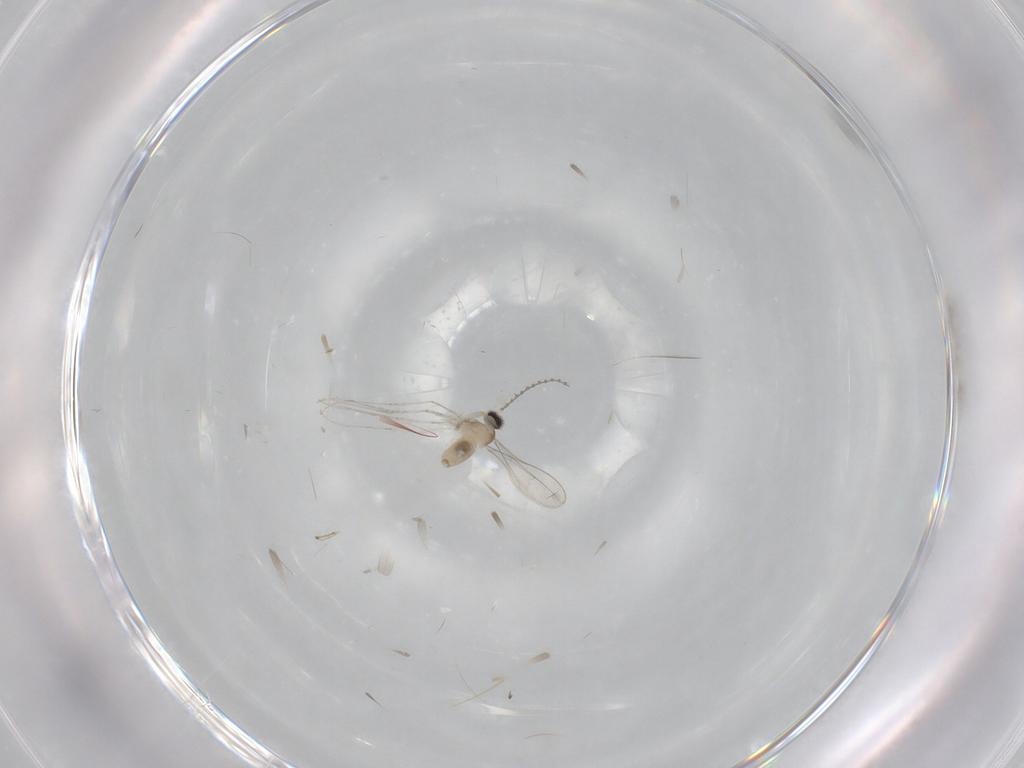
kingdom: Animalia
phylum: Arthropoda
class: Insecta
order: Diptera
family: Cecidomyiidae
